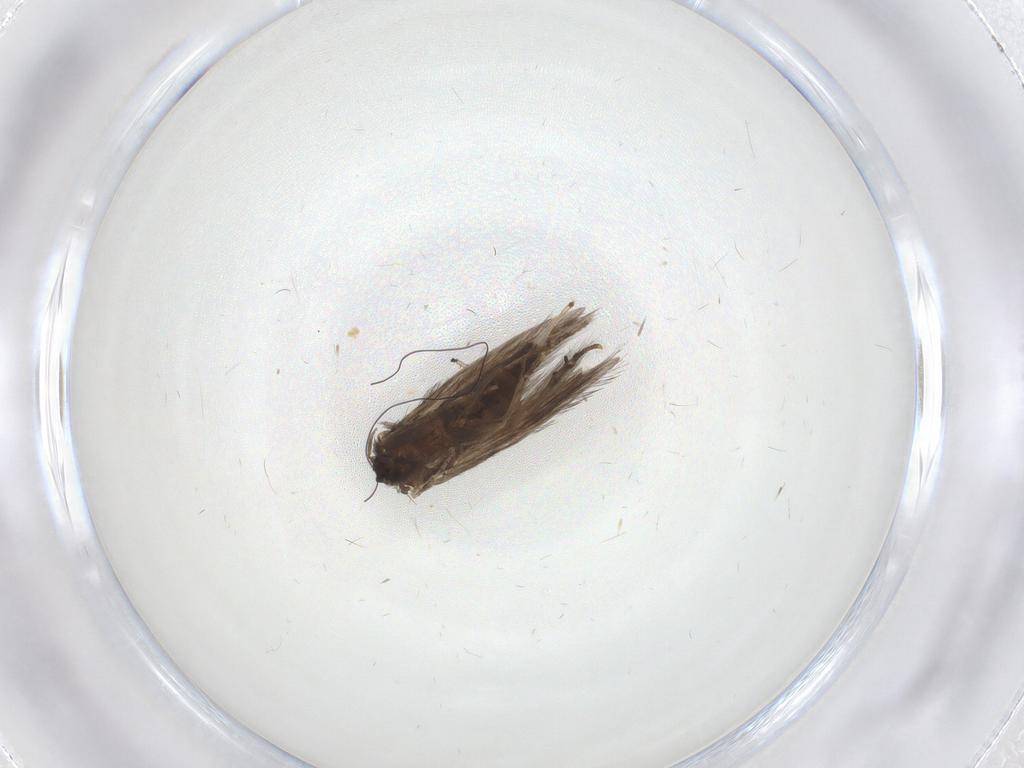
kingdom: Animalia
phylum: Arthropoda
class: Insecta
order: Trichoptera
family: Hydroptilidae
